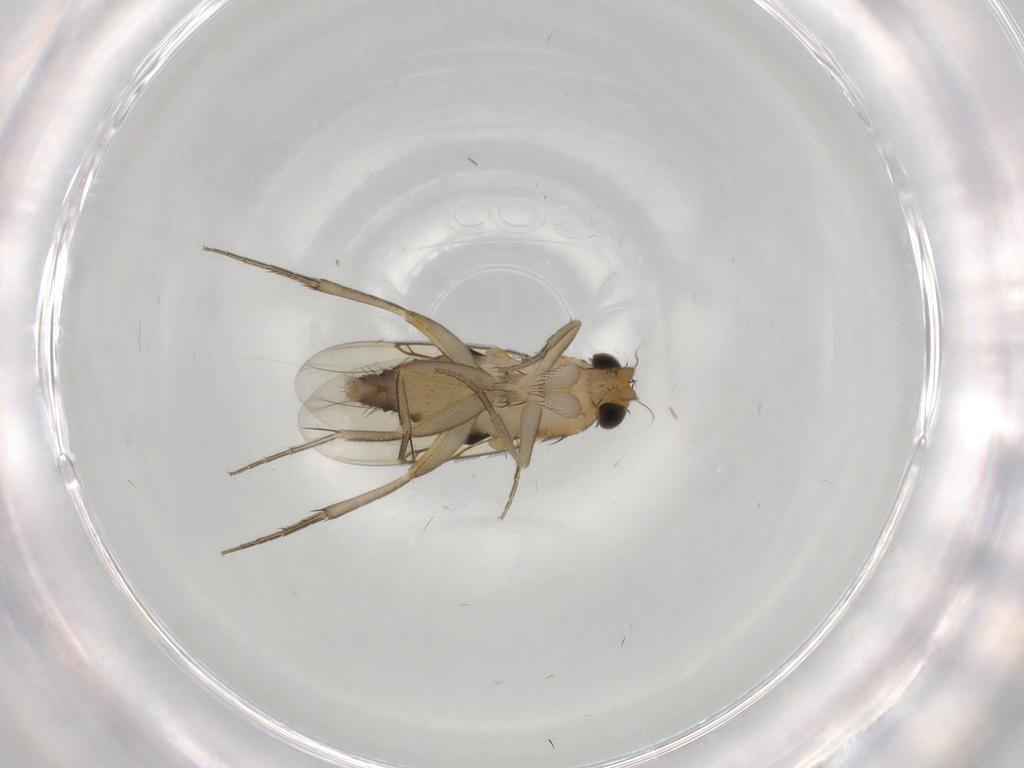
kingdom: Animalia
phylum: Arthropoda
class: Insecta
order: Diptera
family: Phoridae
